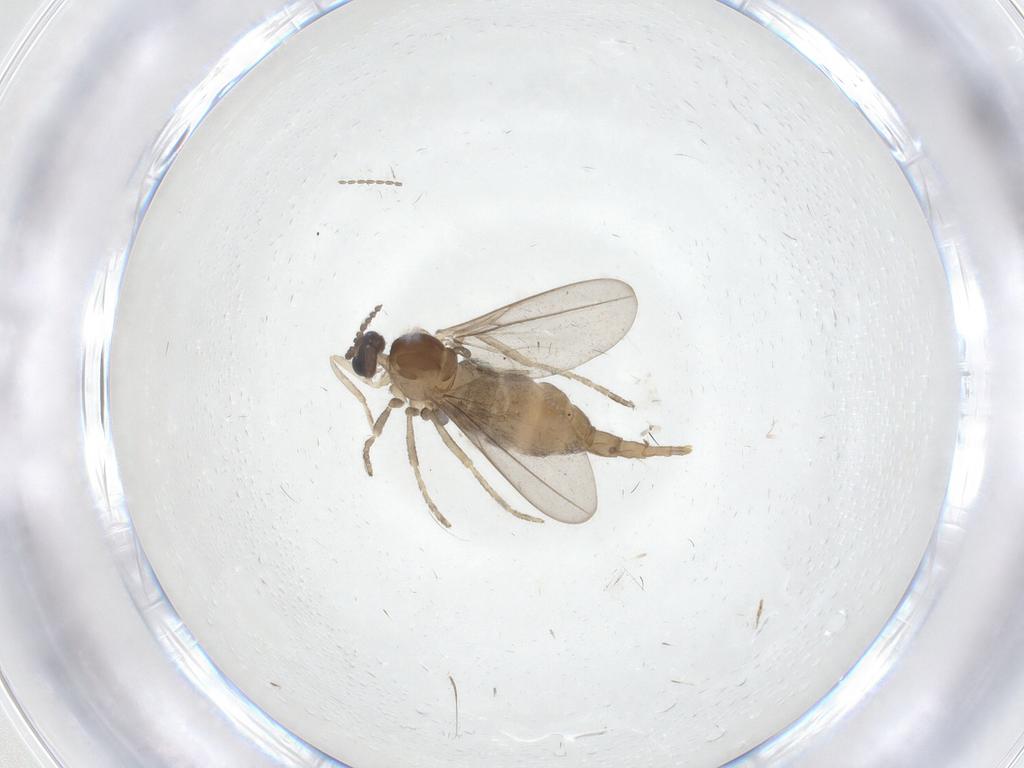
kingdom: Animalia
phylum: Arthropoda
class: Insecta
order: Diptera
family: Cecidomyiidae
